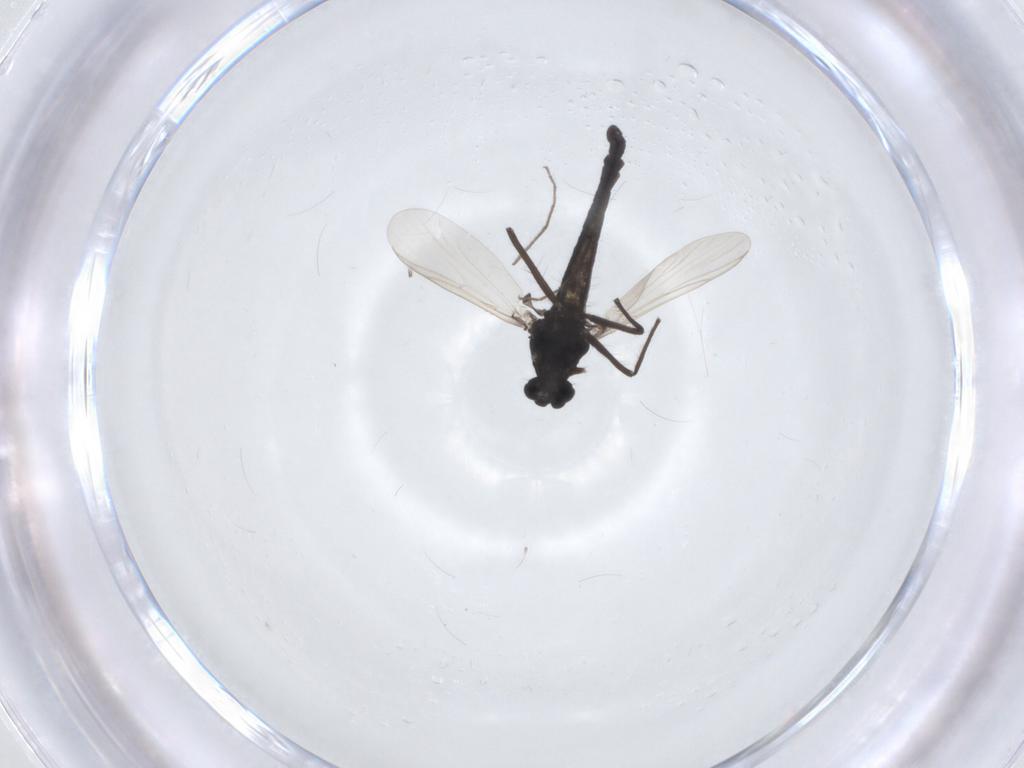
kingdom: Animalia
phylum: Arthropoda
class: Insecta
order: Diptera
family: Chironomidae
